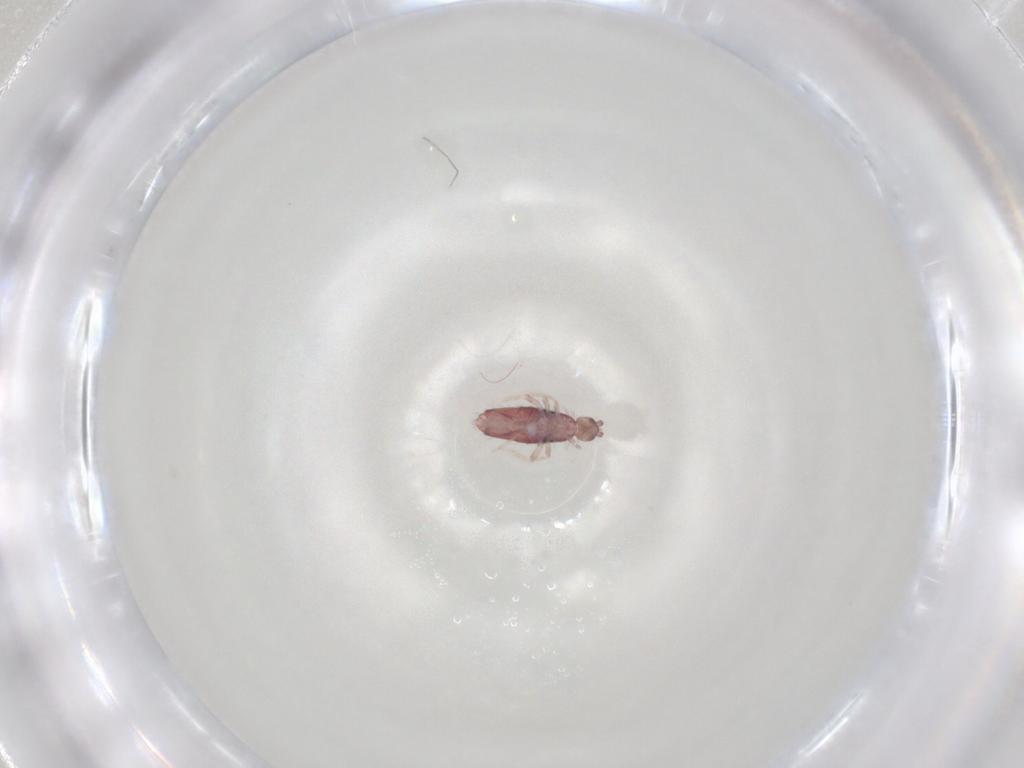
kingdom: Animalia
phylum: Arthropoda
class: Collembola
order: Entomobryomorpha
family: Entomobryidae
